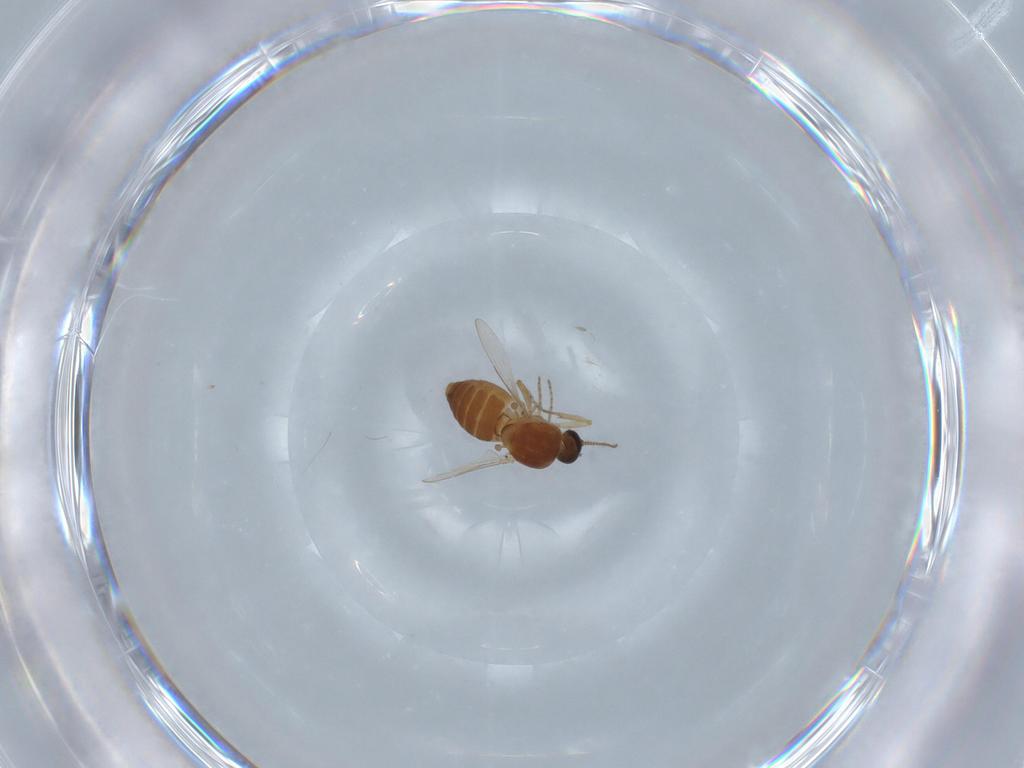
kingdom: Animalia
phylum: Arthropoda
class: Insecta
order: Diptera
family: Ceratopogonidae
